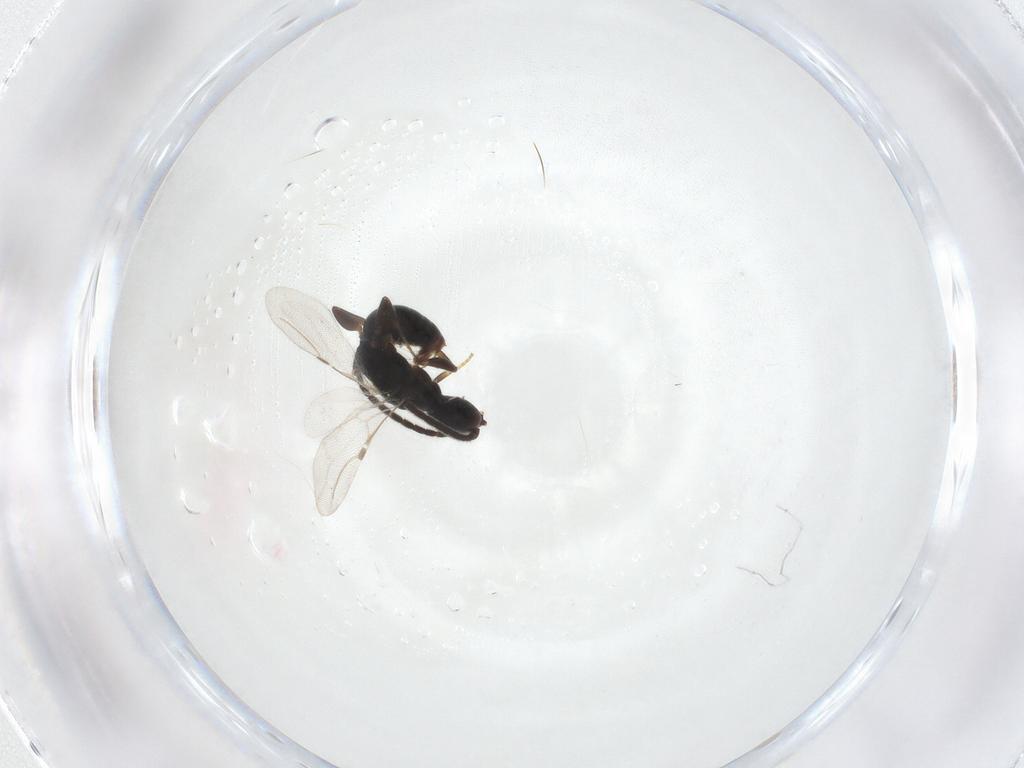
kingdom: Animalia
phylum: Arthropoda
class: Insecta
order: Hymenoptera
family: Bethylidae
